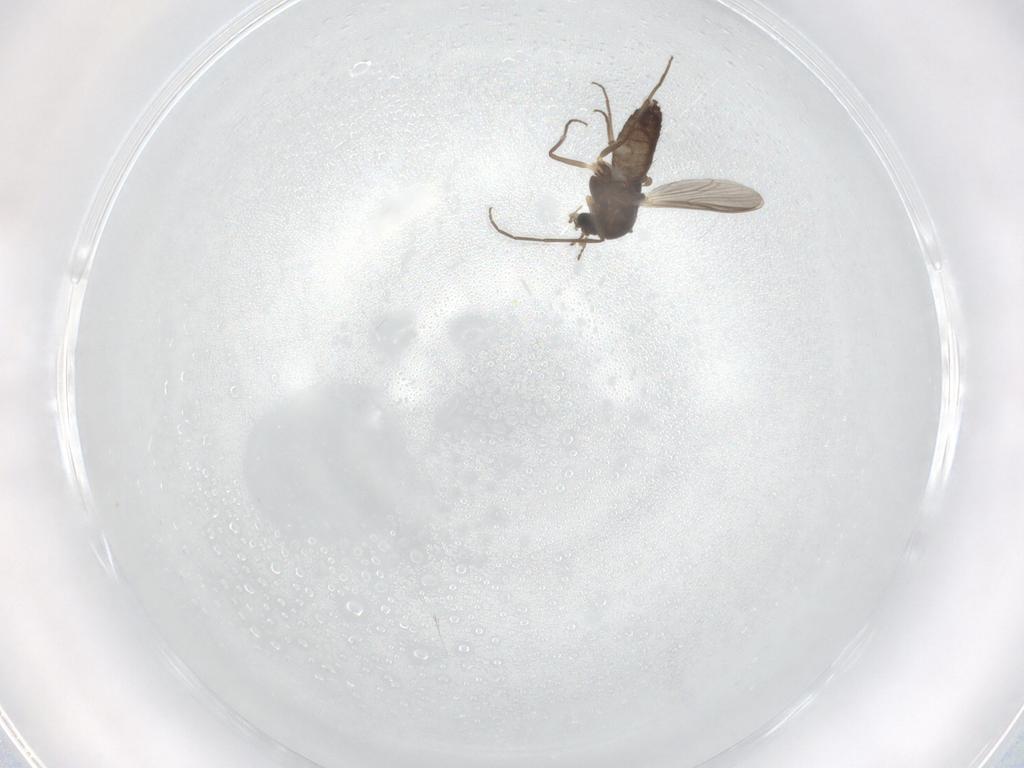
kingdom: Animalia
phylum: Arthropoda
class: Insecta
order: Diptera
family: Chironomidae
